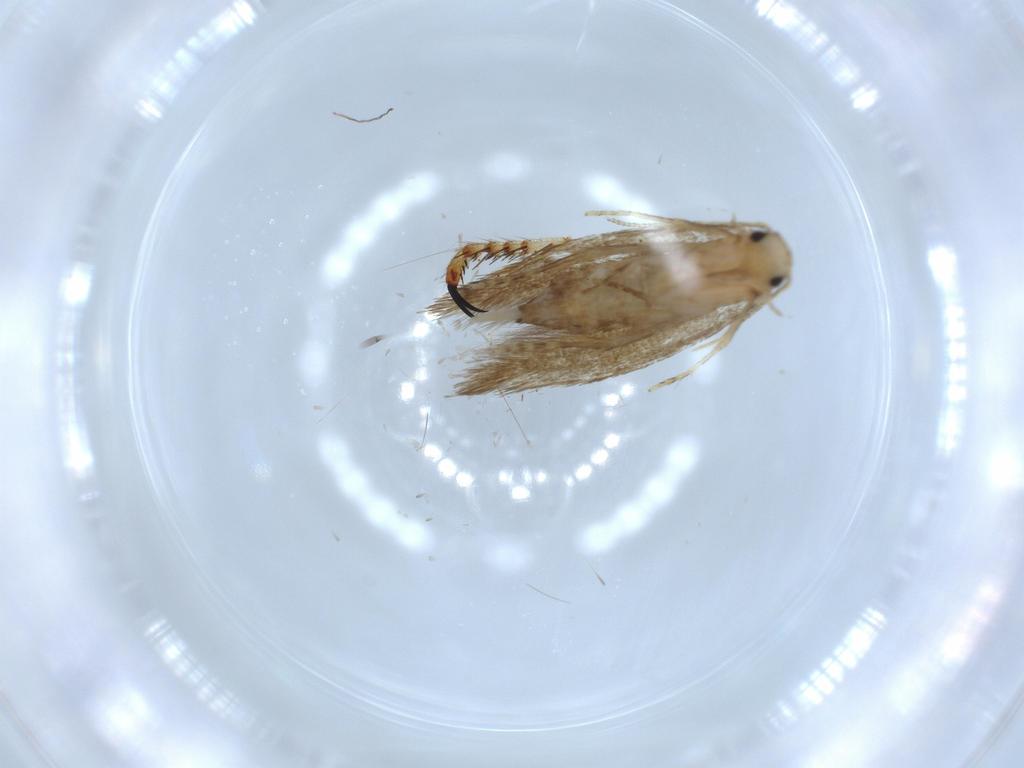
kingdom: Animalia
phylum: Arthropoda
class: Insecta
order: Lepidoptera
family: Tineidae
